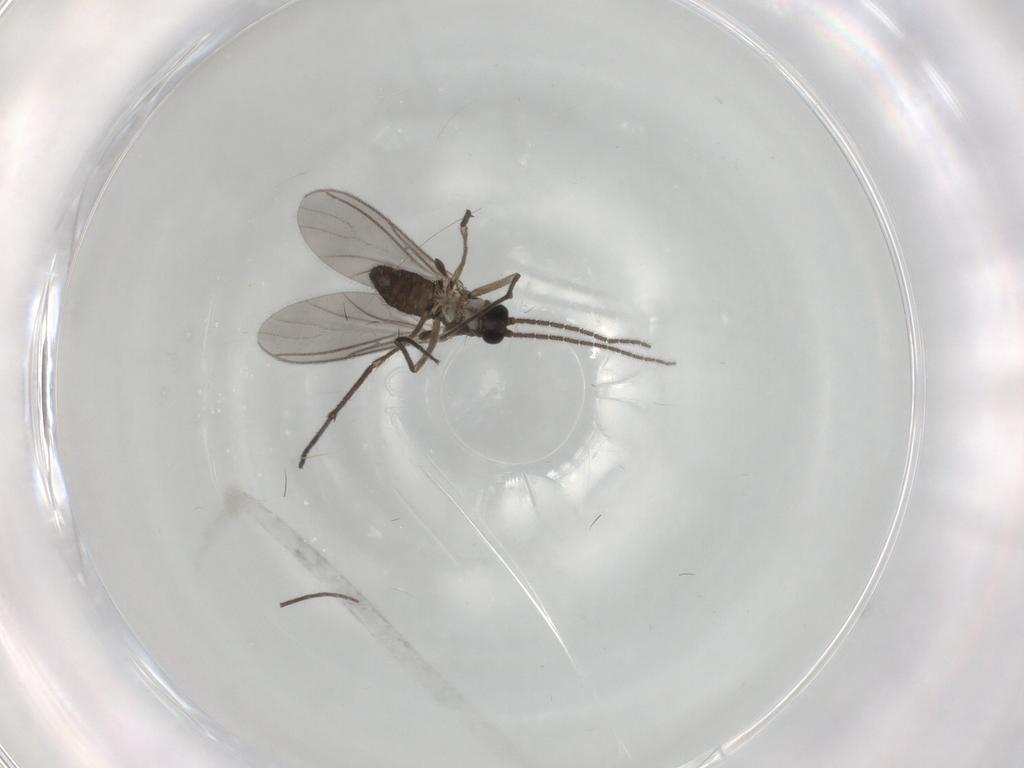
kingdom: Animalia
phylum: Arthropoda
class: Insecta
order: Diptera
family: Sciaridae
